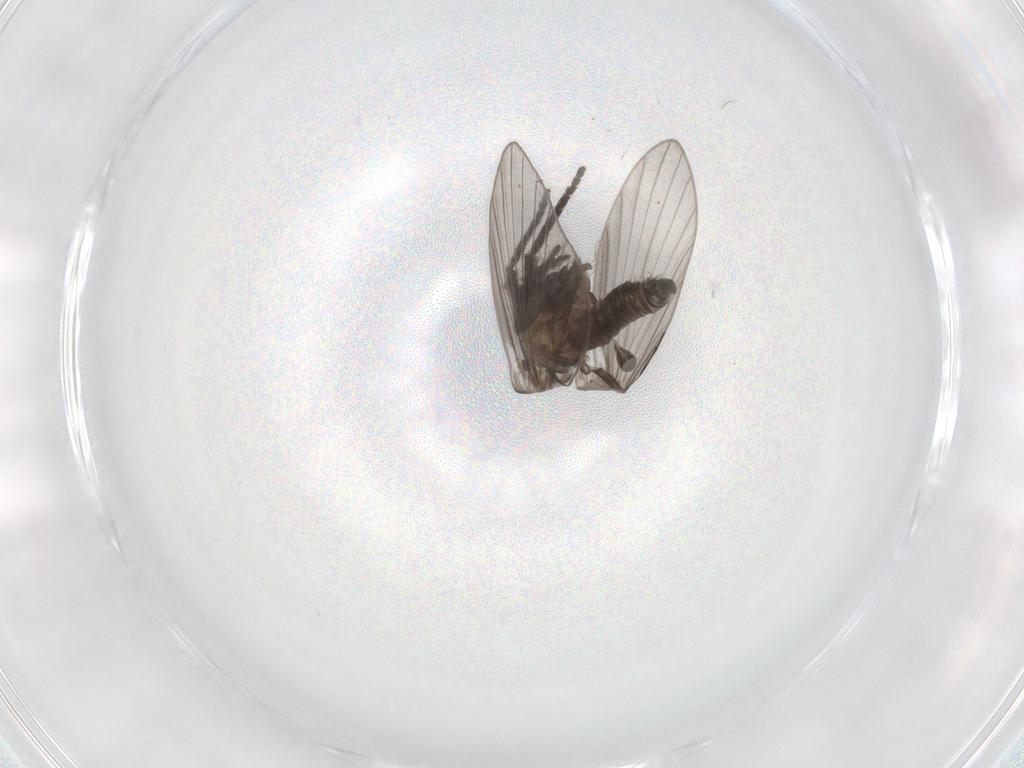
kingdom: Animalia
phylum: Arthropoda
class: Insecta
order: Diptera
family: Psychodidae
